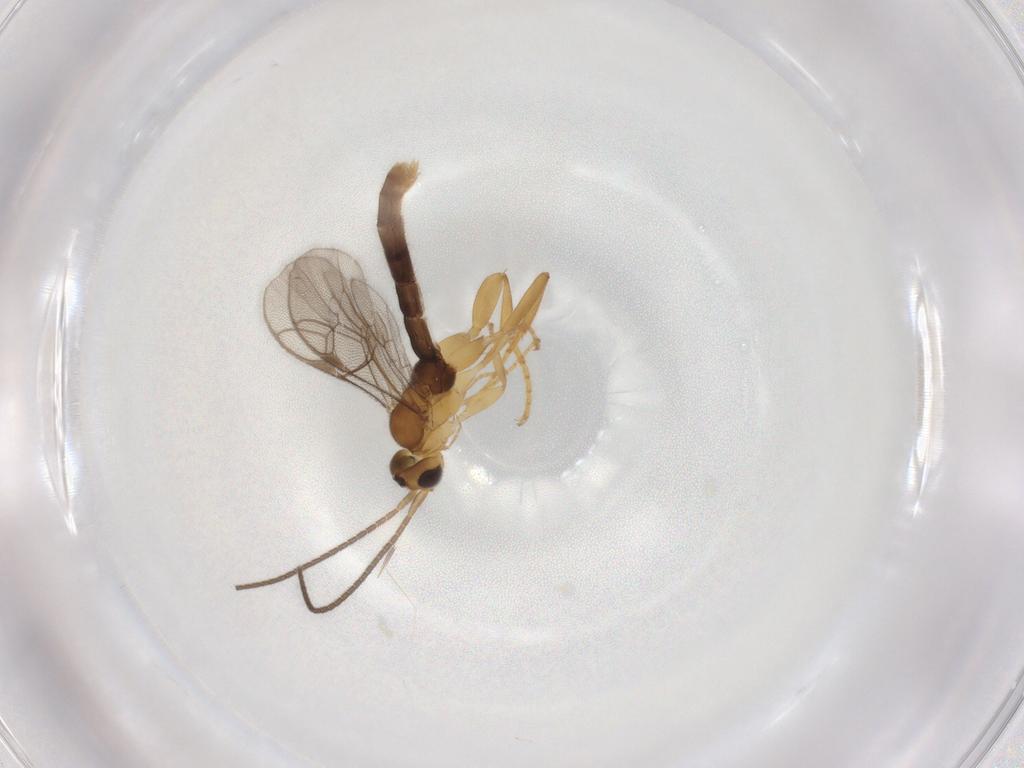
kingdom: Animalia
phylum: Arthropoda
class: Insecta
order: Hymenoptera
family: Ichneumonidae
